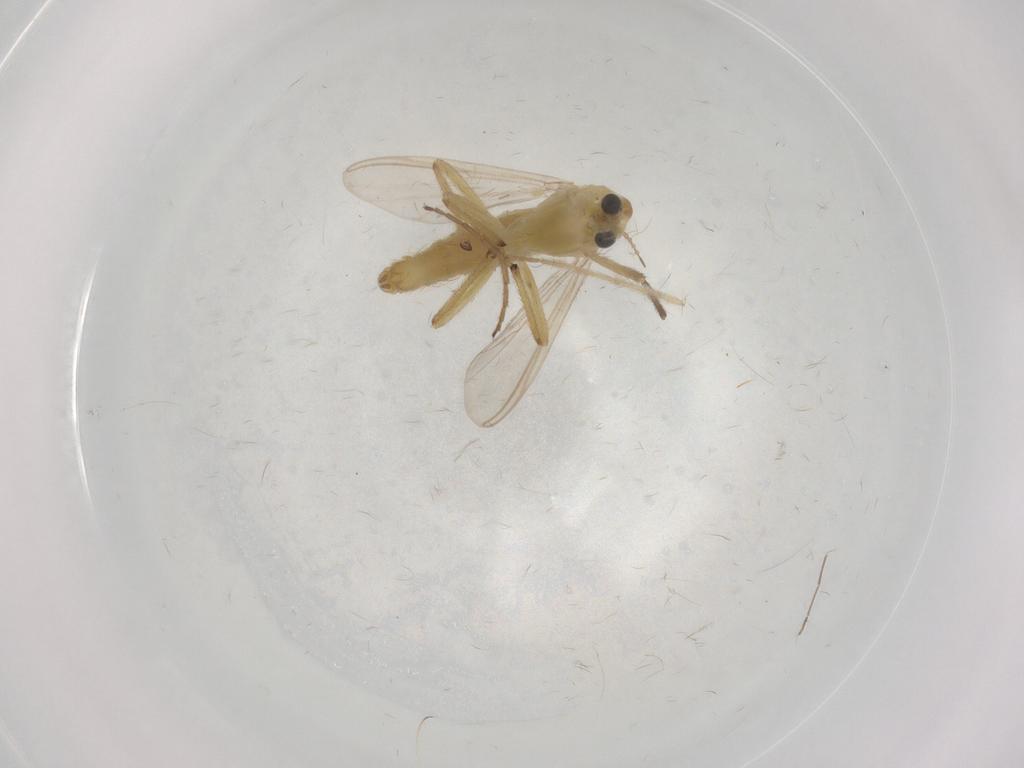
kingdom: Animalia
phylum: Arthropoda
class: Insecta
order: Diptera
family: Chironomidae
